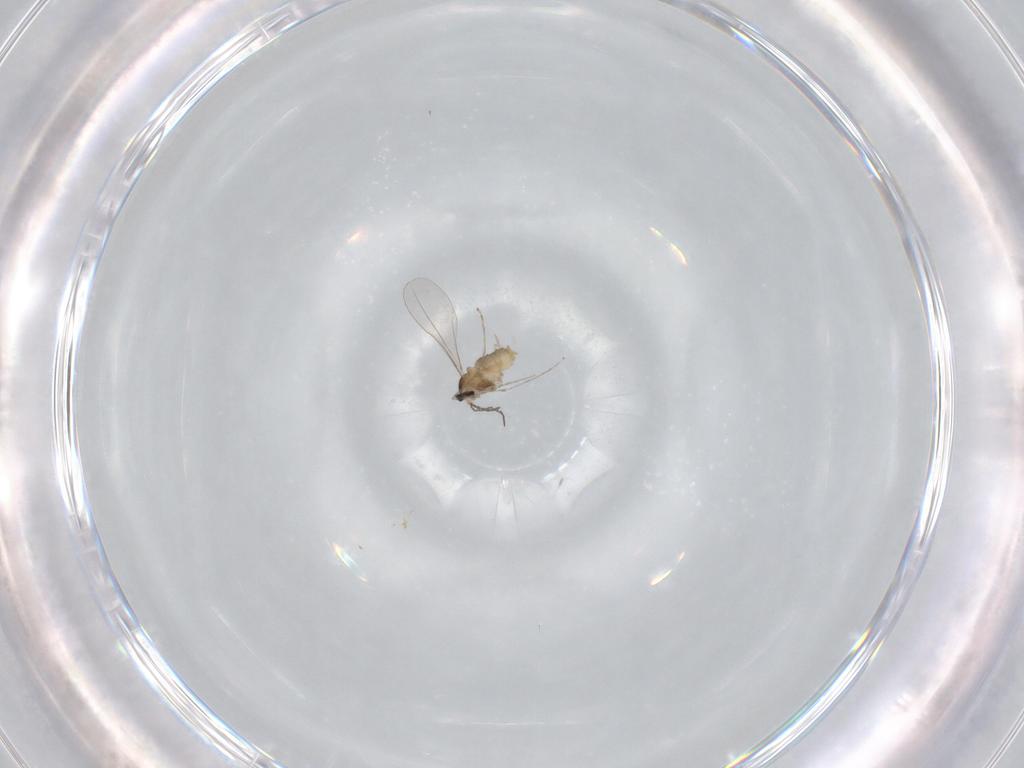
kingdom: Animalia
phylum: Arthropoda
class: Insecta
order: Diptera
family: Cecidomyiidae
